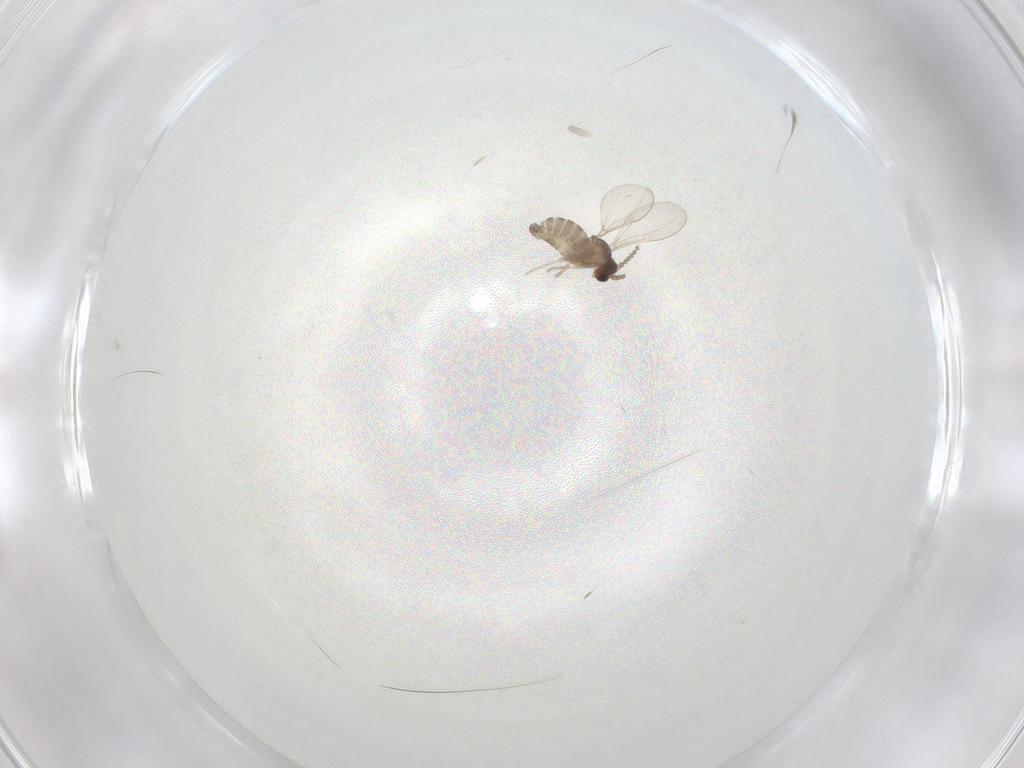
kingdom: Animalia
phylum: Arthropoda
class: Insecta
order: Diptera
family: Cecidomyiidae
